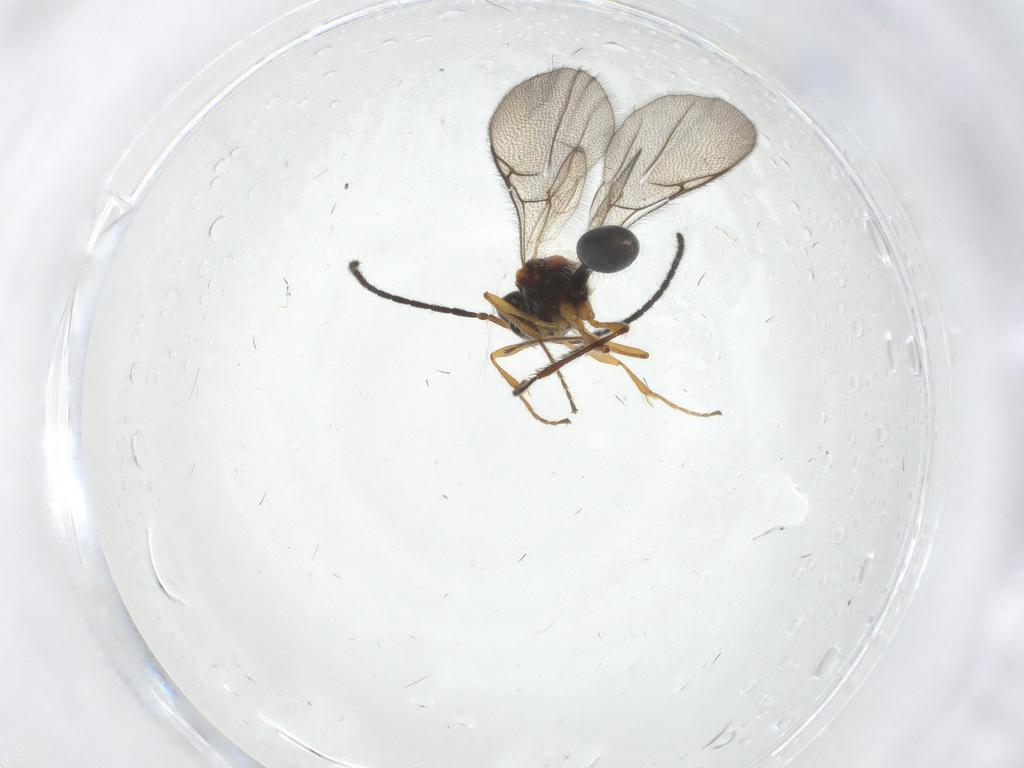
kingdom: Animalia
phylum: Arthropoda
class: Insecta
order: Hymenoptera
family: Diapriidae
